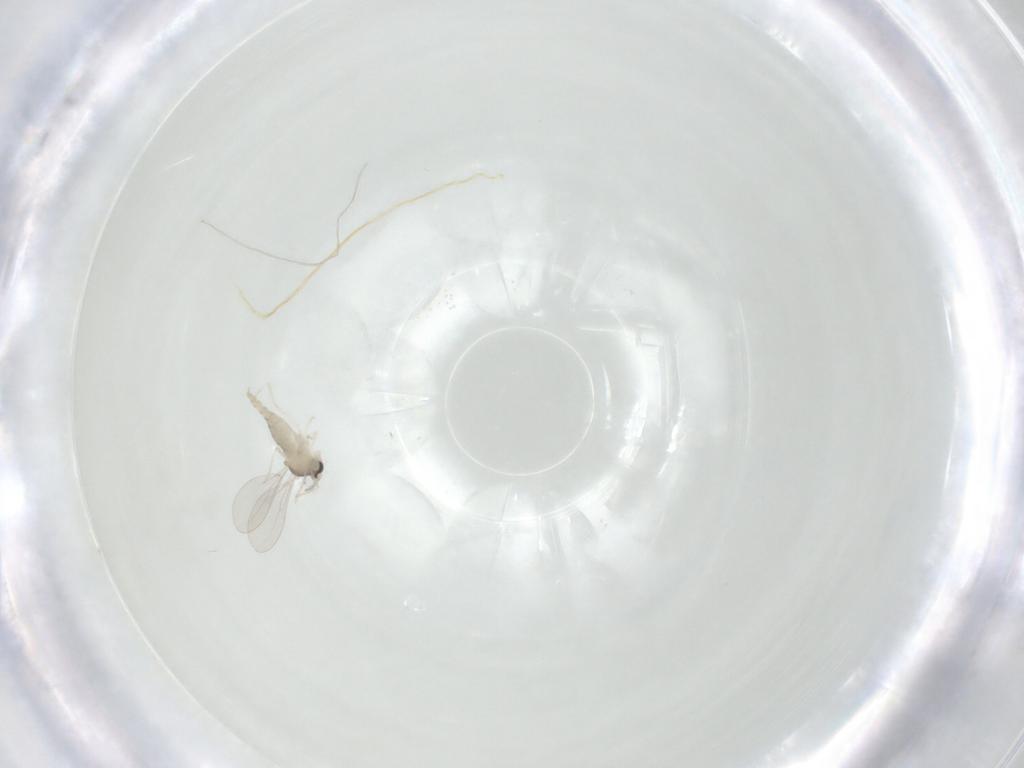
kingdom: Animalia
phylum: Arthropoda
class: Insecta
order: Diptera
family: Cecidomyiidae
